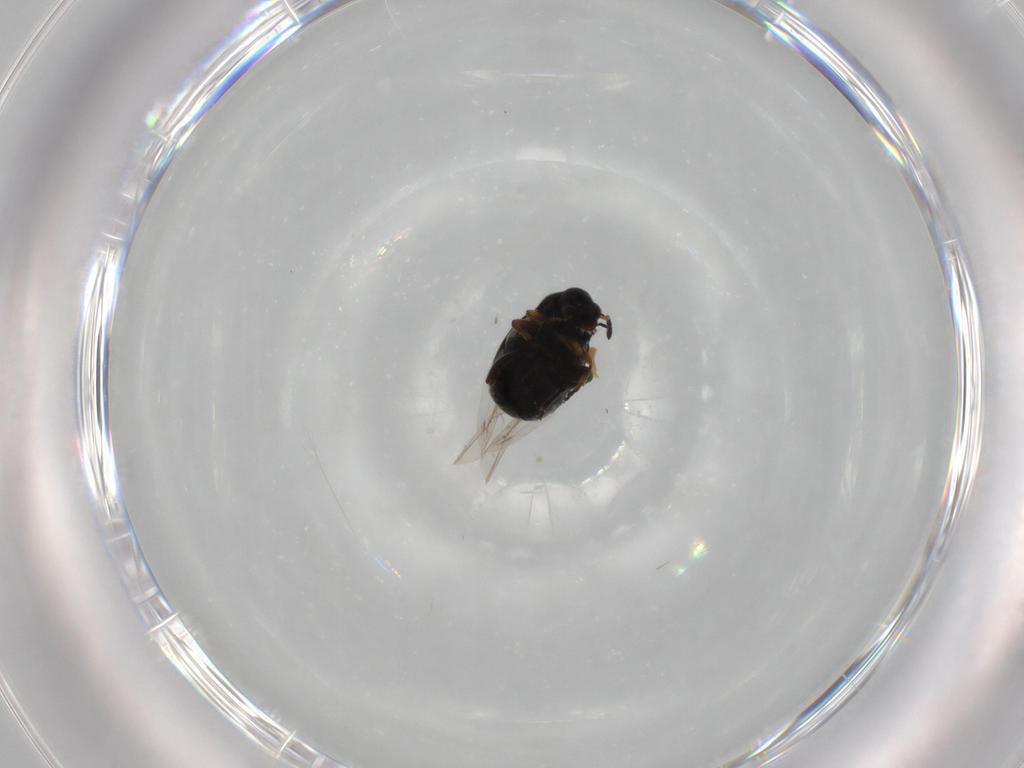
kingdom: Animalia
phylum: Arthropoda
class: Insecta
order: Coleoptera
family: Chrysomelidae
